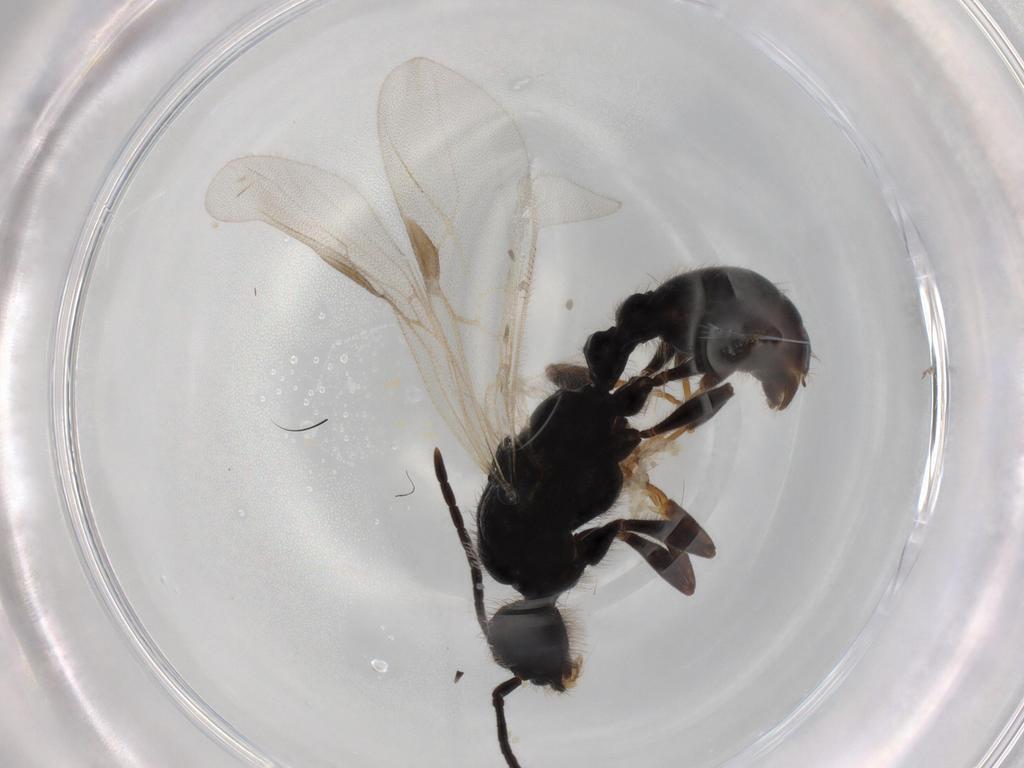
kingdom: Animalia
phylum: Arthropoda
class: Insecta
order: Hymenoptera
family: Formicidae
